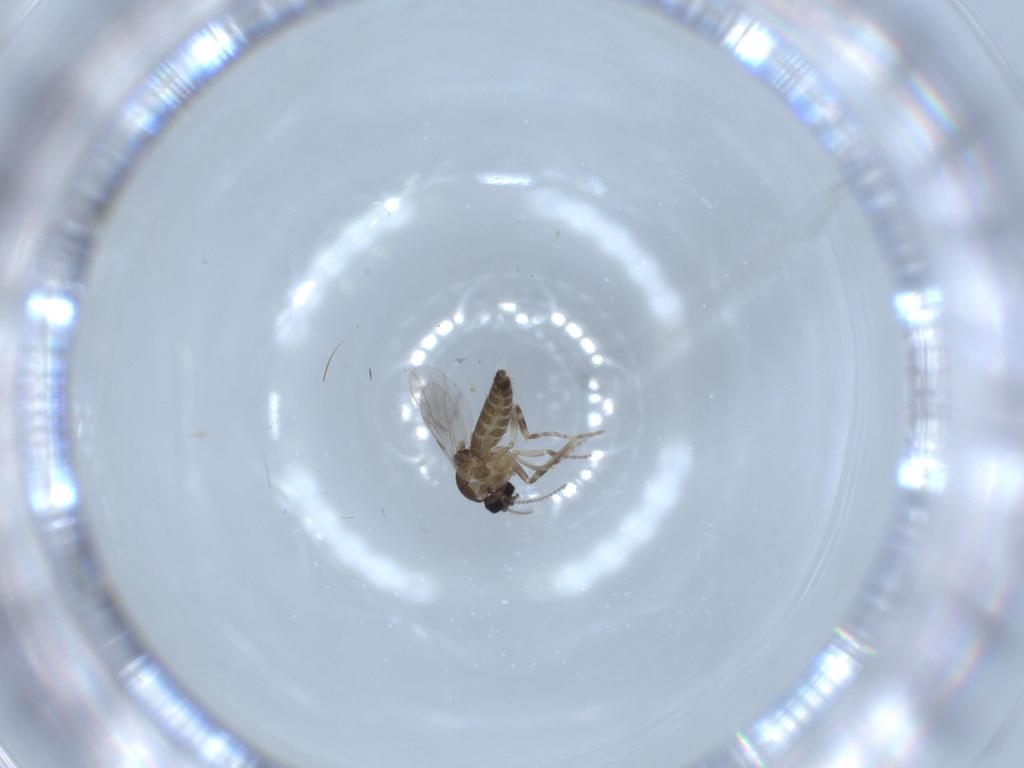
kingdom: Animalia
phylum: Arthropoda
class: Insecta
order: Diptera
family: Ceratopogonidae
